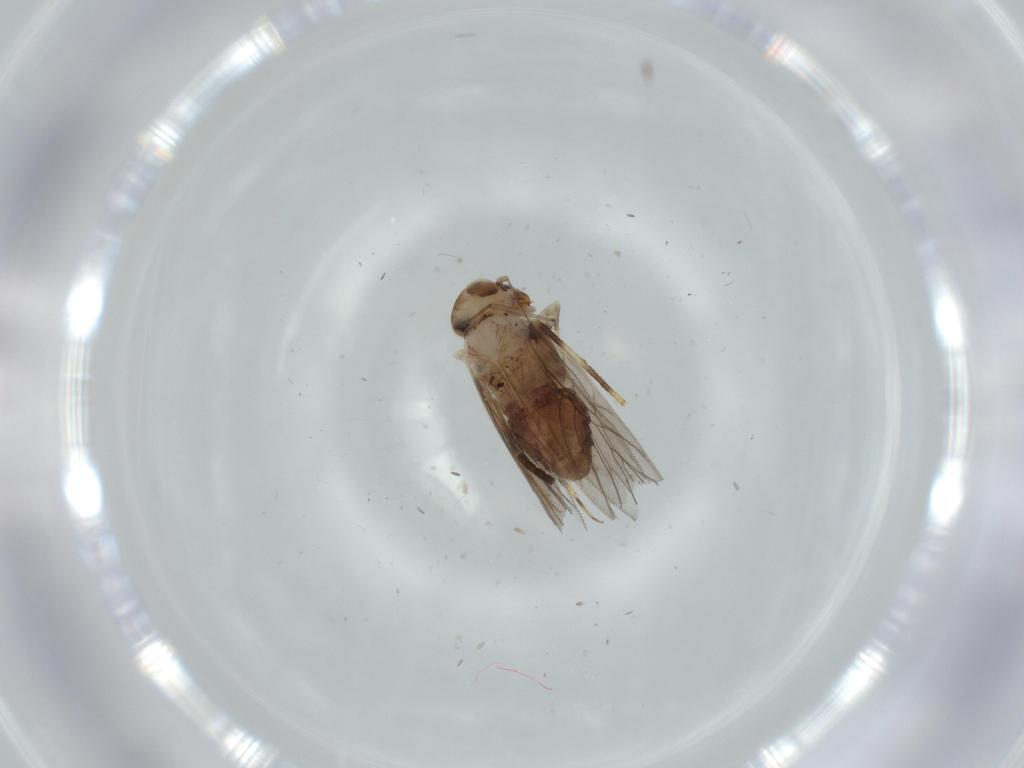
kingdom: Animalia
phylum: Arthropoda
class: Insecta
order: Psocodea
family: Lepidopsocidae
